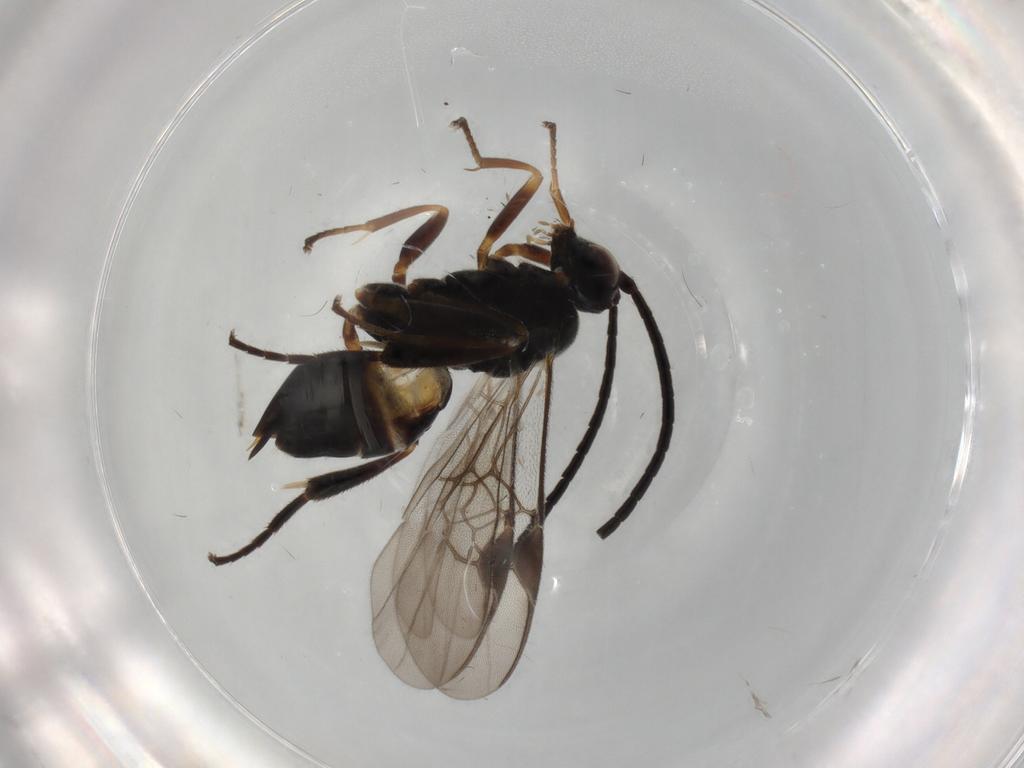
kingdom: Animalia
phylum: Arthropoda
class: Insecta
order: Hymenoptera
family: Braconidae
